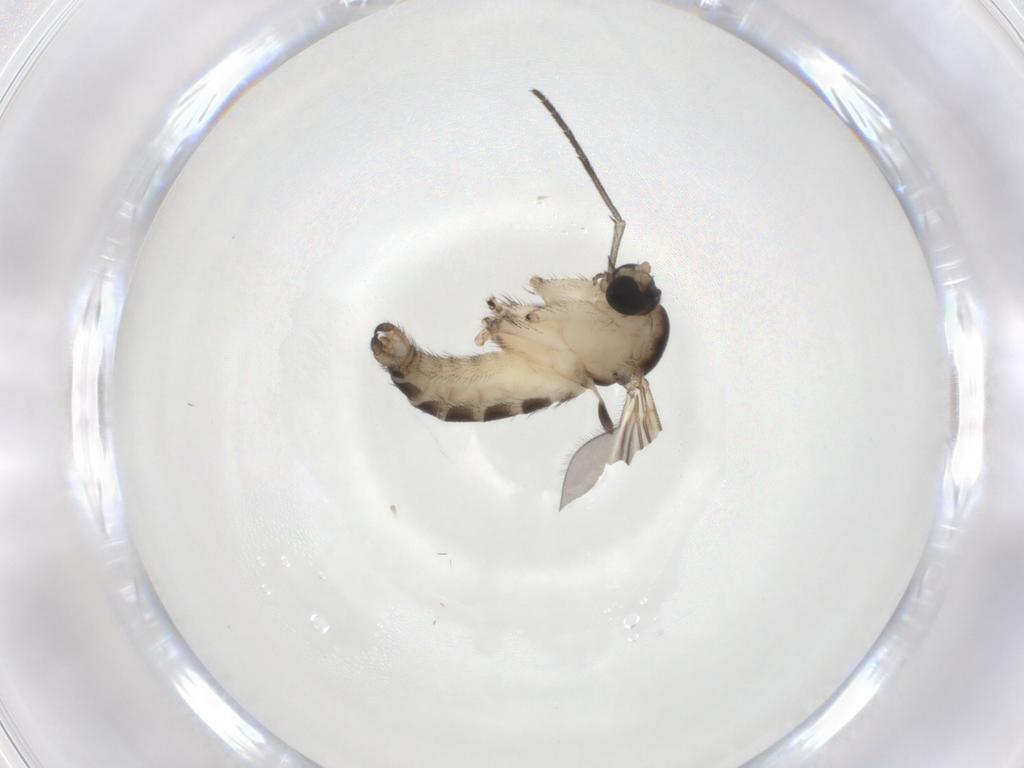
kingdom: Animalia
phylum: Arthropoda
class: Insecta
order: Diptera
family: Sciaridae
